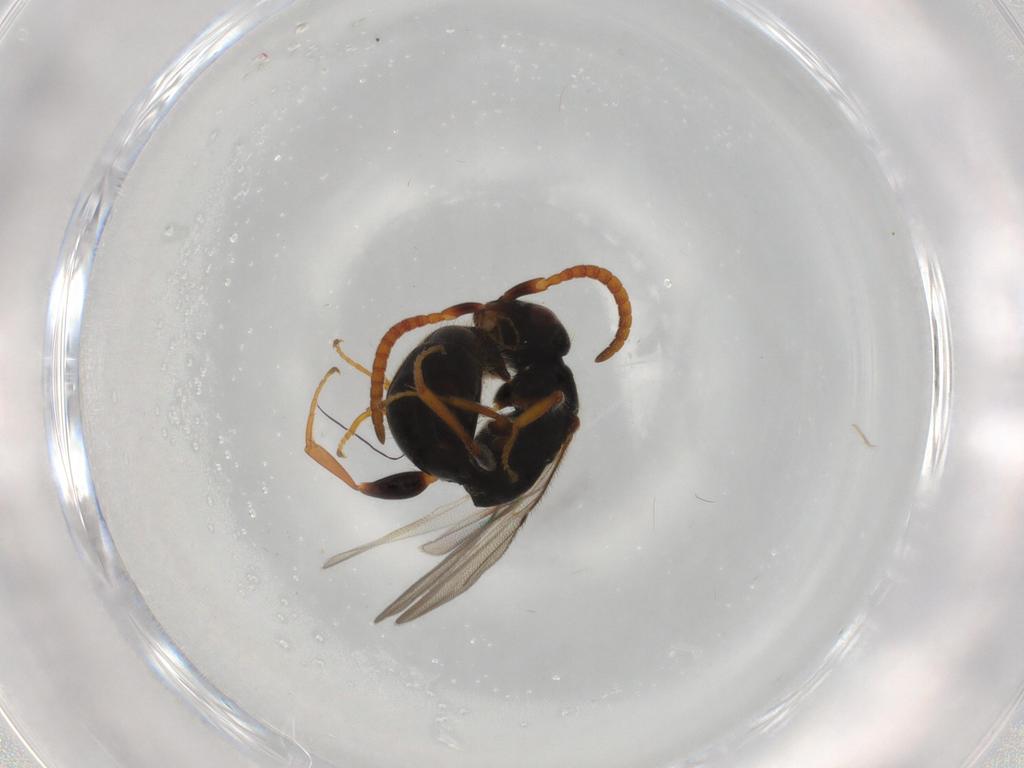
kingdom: Animalia
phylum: Arthropoda
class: Insecta
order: Hymenoptera
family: Bethylidae
